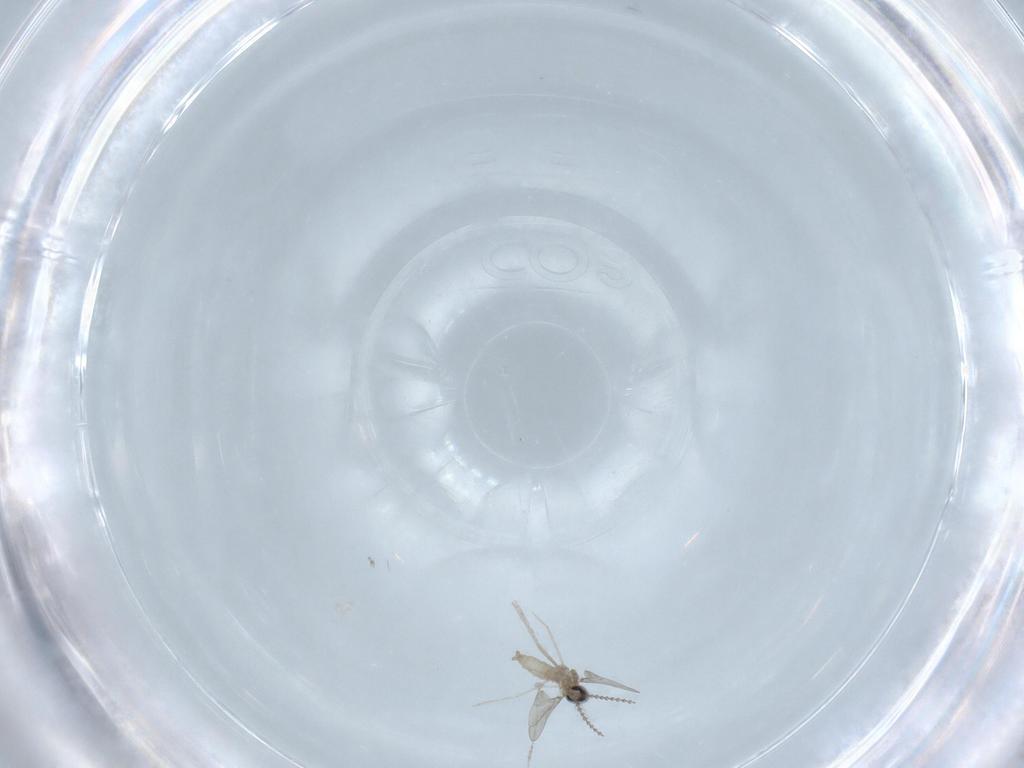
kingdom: Animalia
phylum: Arthropoda
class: Insecta
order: Diptera
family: Cecidomyiidae
